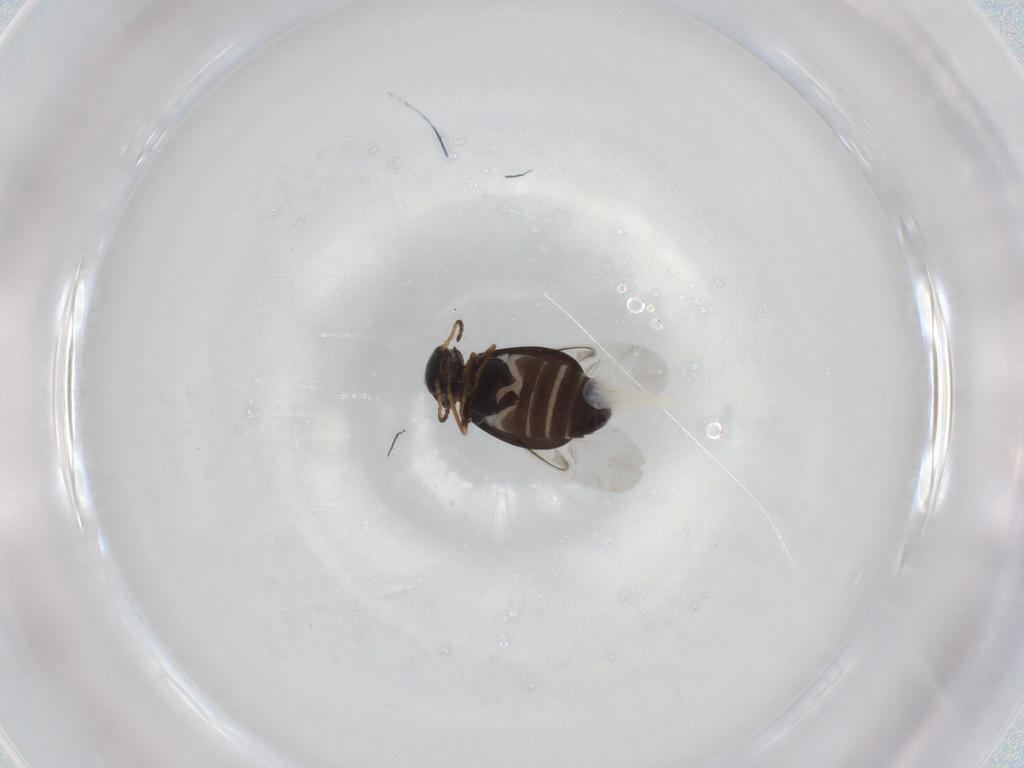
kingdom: Animalia
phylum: Arthropoda
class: Insecta
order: Coleoptera
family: Melyridae
